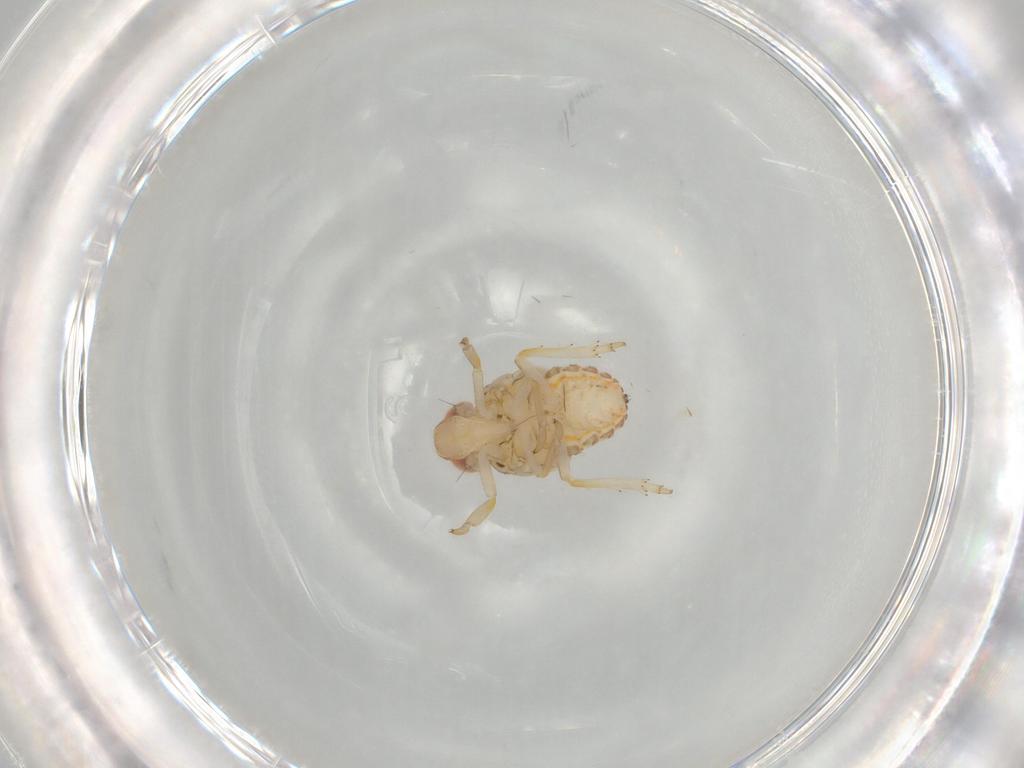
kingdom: Animalia
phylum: Arthropoda
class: Insecta
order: Hemiptera
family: Issidae
